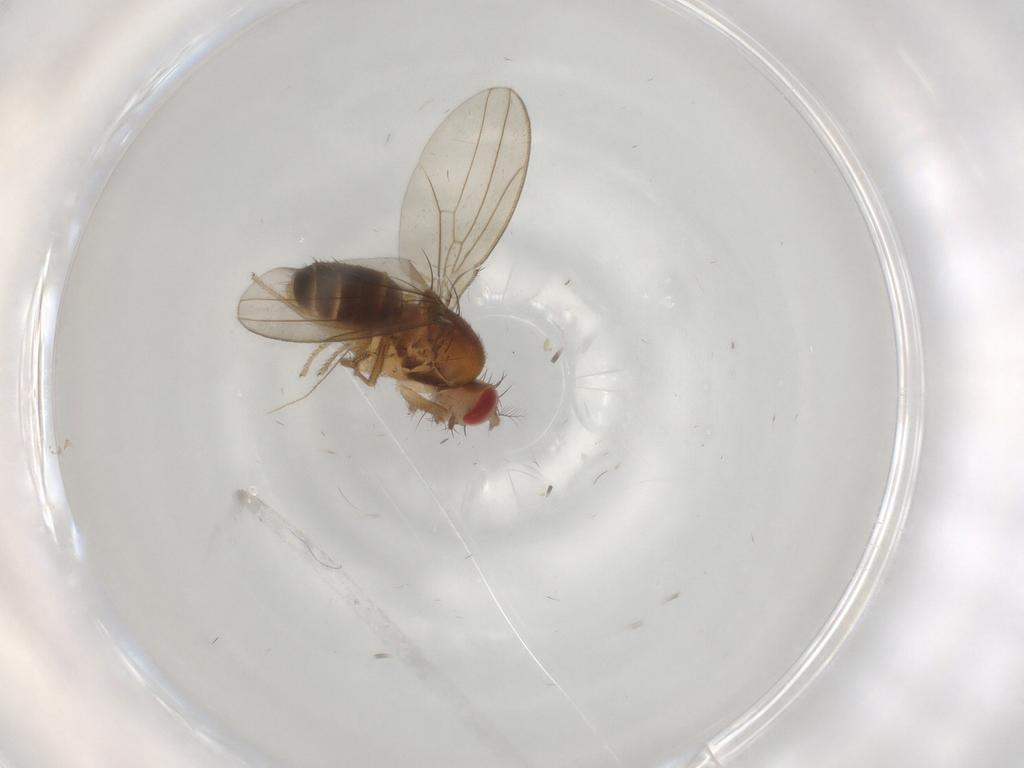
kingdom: Animalia
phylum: Arthropoda
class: Insecta
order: Diptera
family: Drosophilidae
